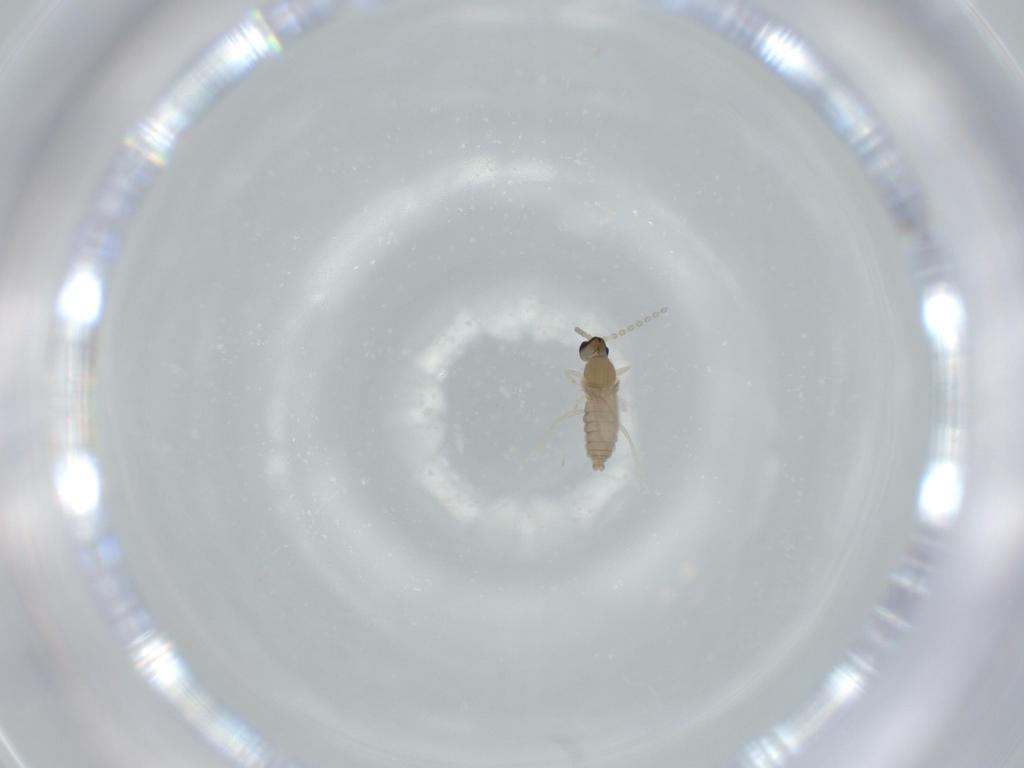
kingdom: Animalia
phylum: Arthropoda
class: Insecta
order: Diptera
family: Cecidomyiidae
